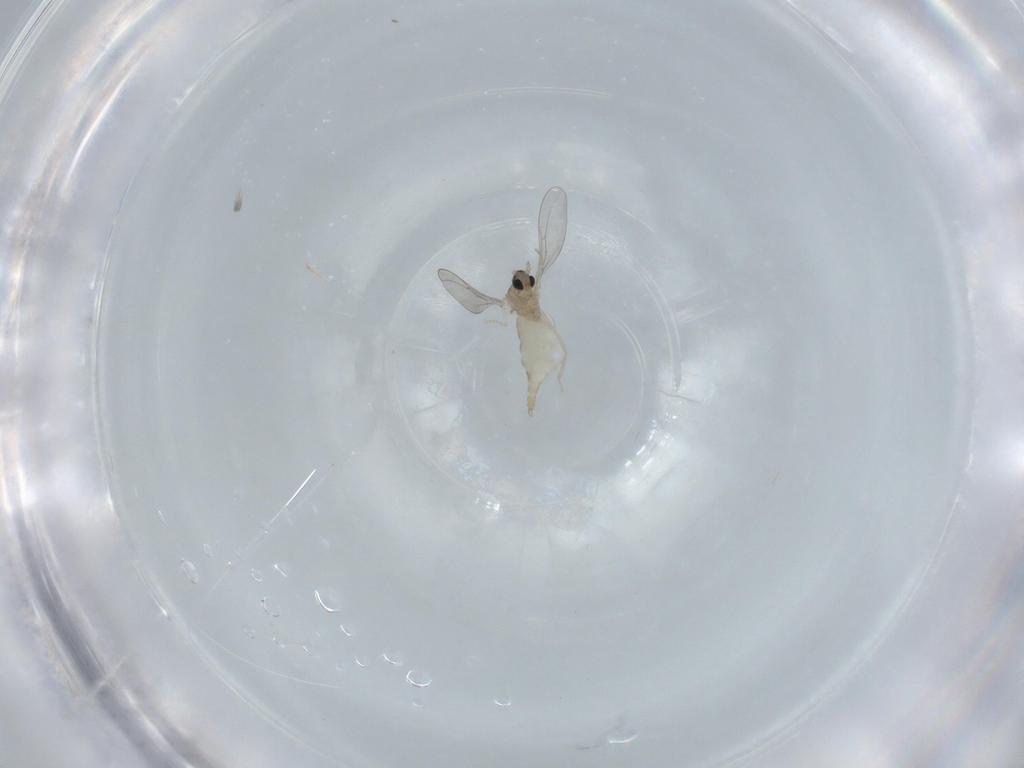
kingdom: Animalia
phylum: Arthropoda
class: Insecta
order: Diptera
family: Cecidomyiidae
